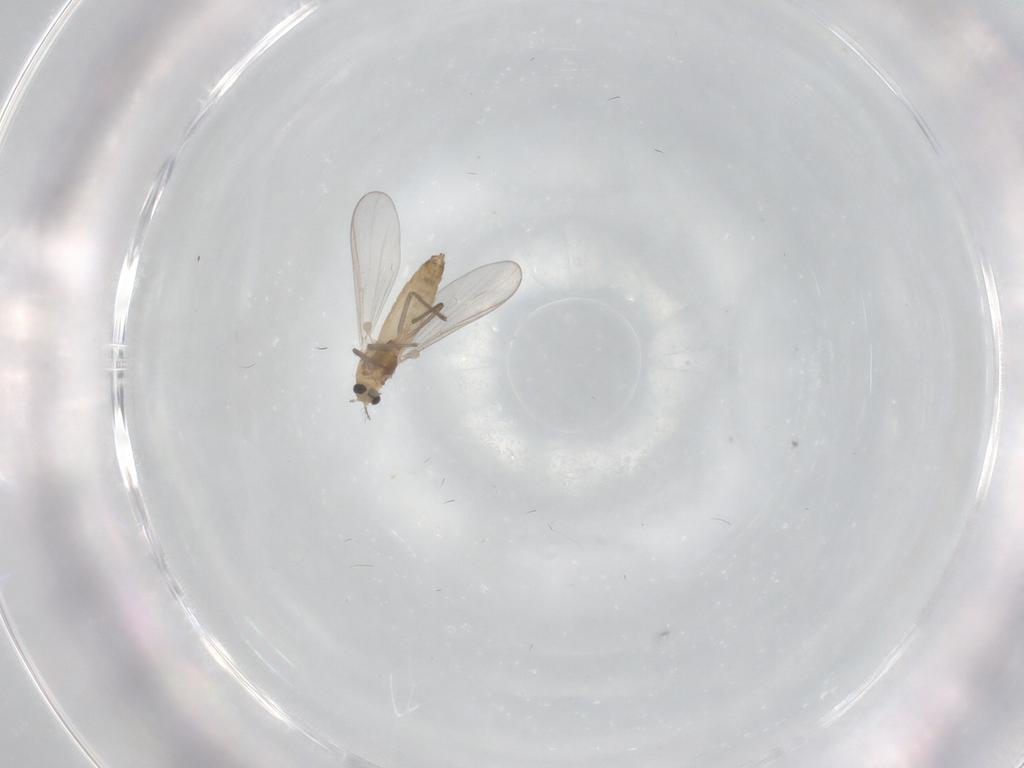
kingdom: Animalia
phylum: Arthropoda
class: Insecta
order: Diptera
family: Chironomidae
